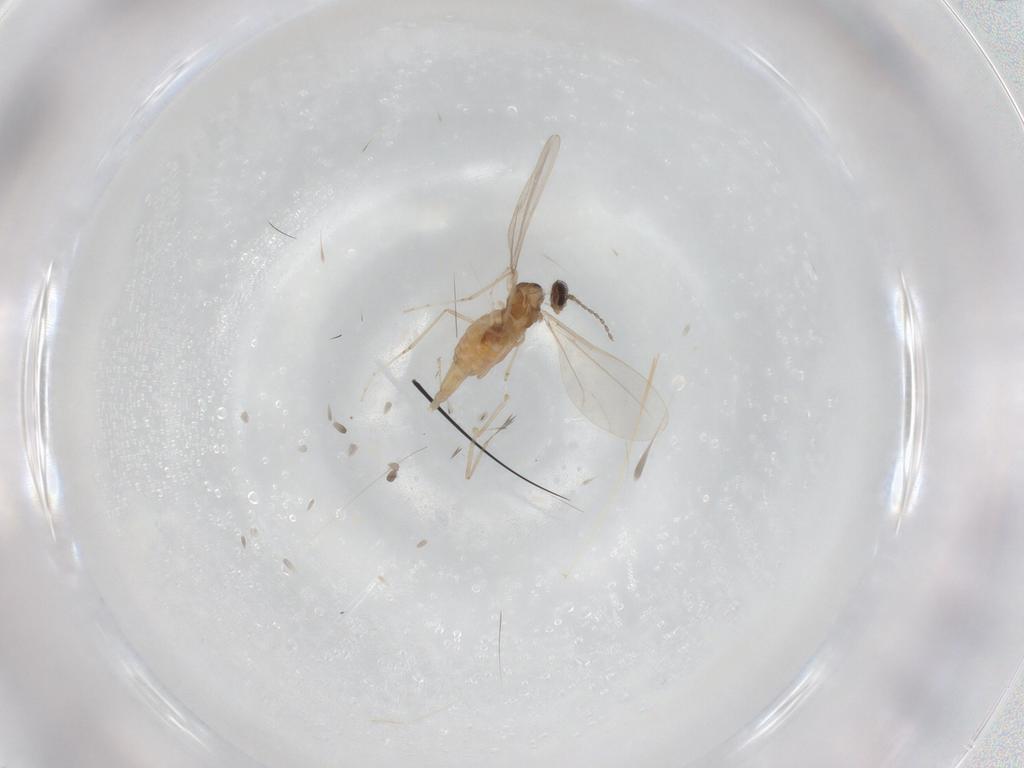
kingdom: Animalia
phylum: Arthropoda
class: Insecta
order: Diptera
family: Cecidomyiidae
